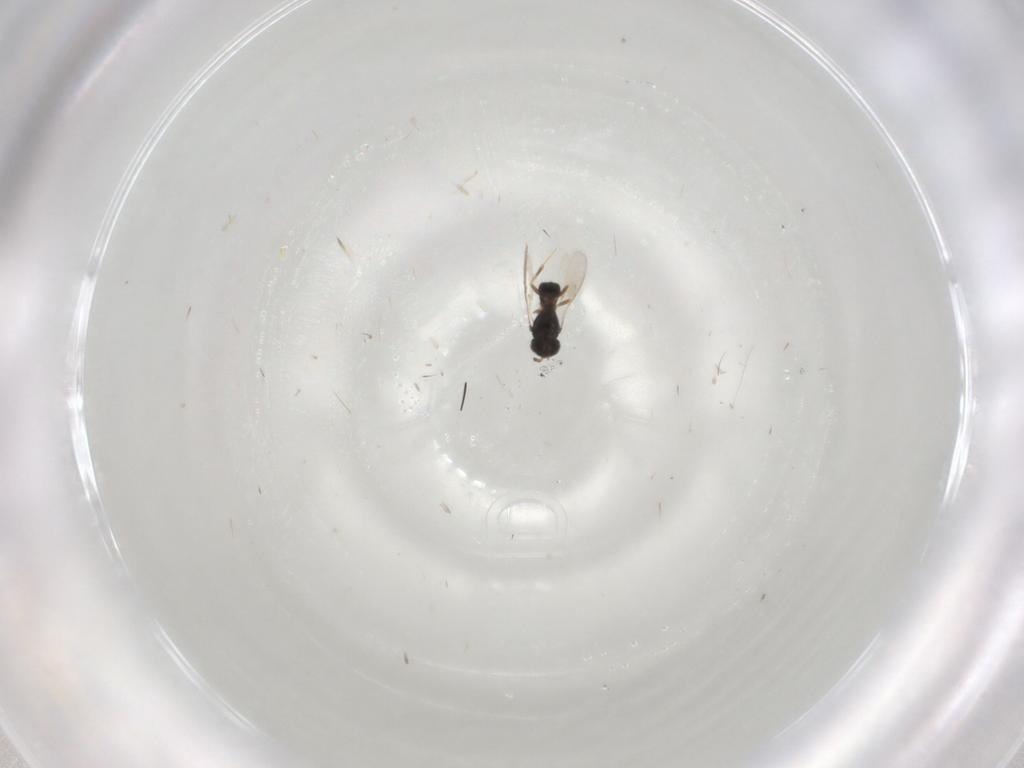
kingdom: Animalia
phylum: Arthropoda
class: Insecta
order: Hymenoptera
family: Scelionidae
